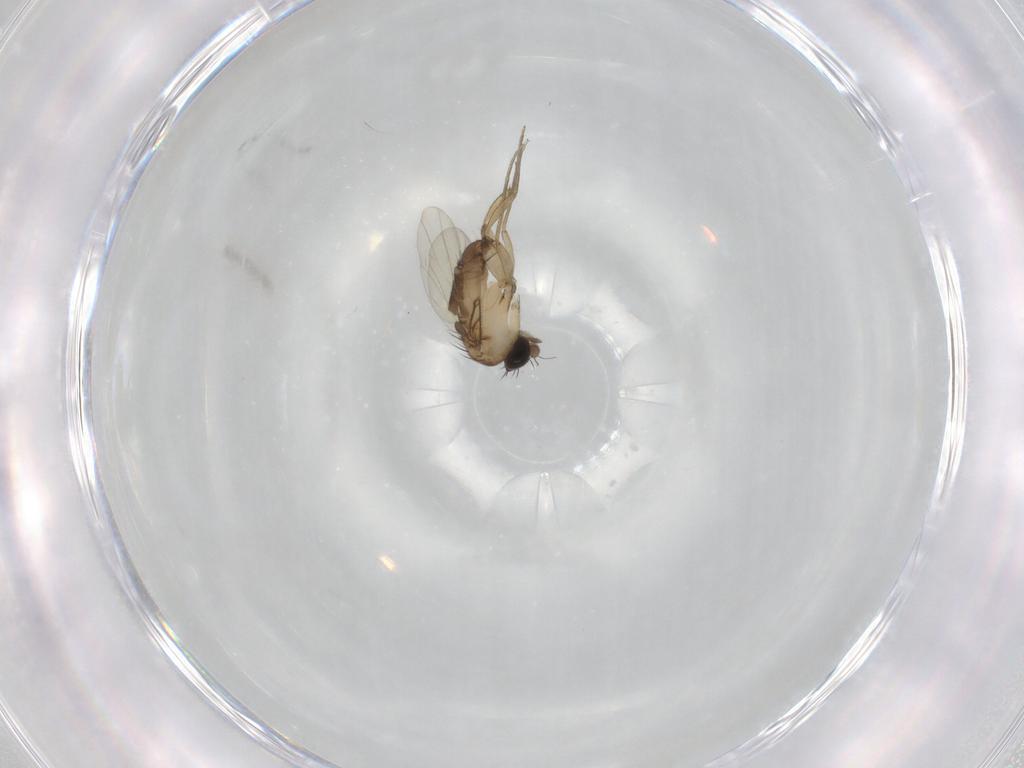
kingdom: Animalia
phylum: Arthropoda
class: Insecta
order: Diptera
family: Phoridae
